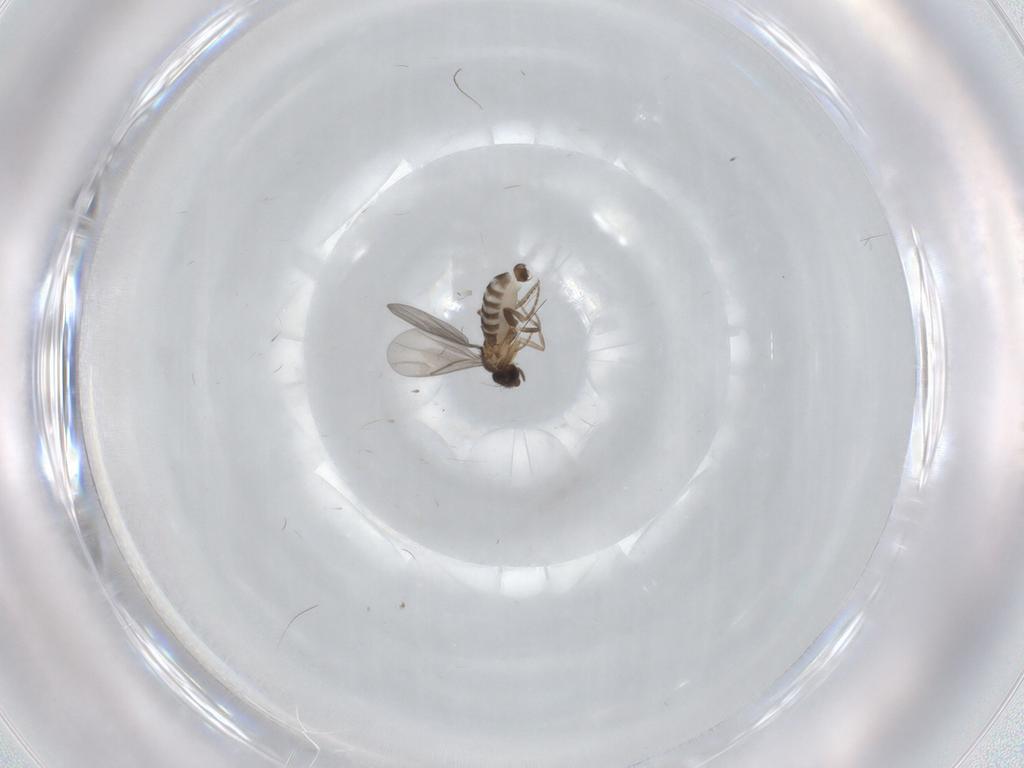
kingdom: Animalia
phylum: Arthropoda
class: Insecta
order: Diptera
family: Cecidomyiidae
